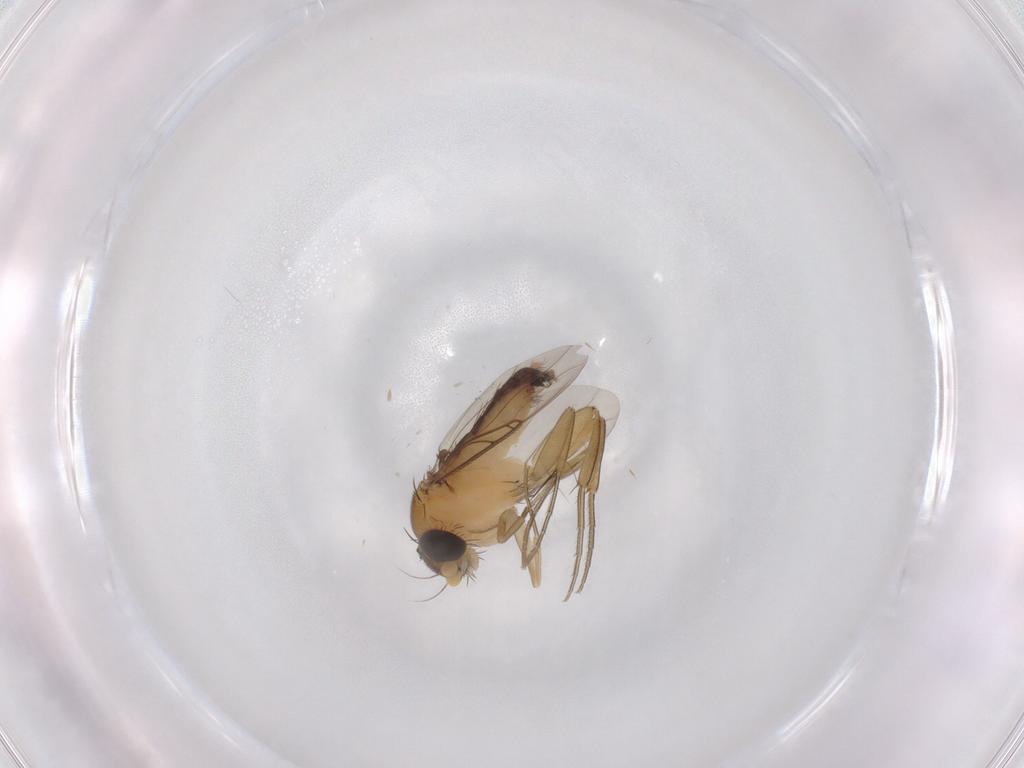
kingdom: Animalia
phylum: Arthropoda
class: Insecta
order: Diptera
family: Phoridae
